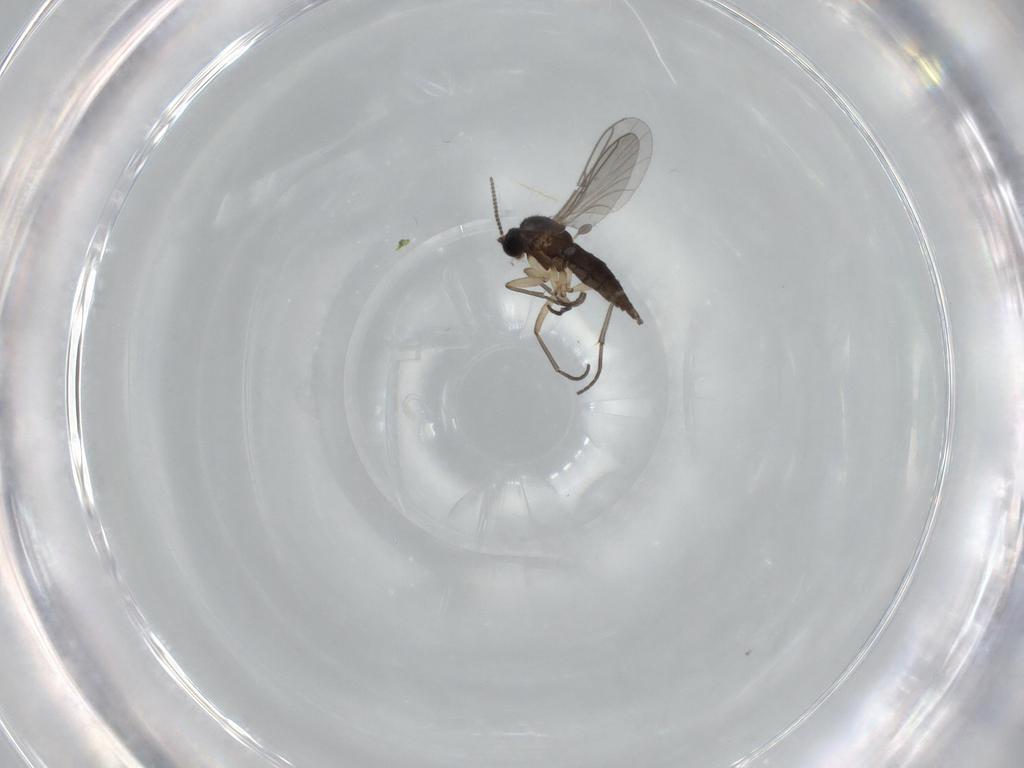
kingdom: Animalia
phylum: Arthropoda
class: Insecta
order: Diptera
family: Sciaridae
